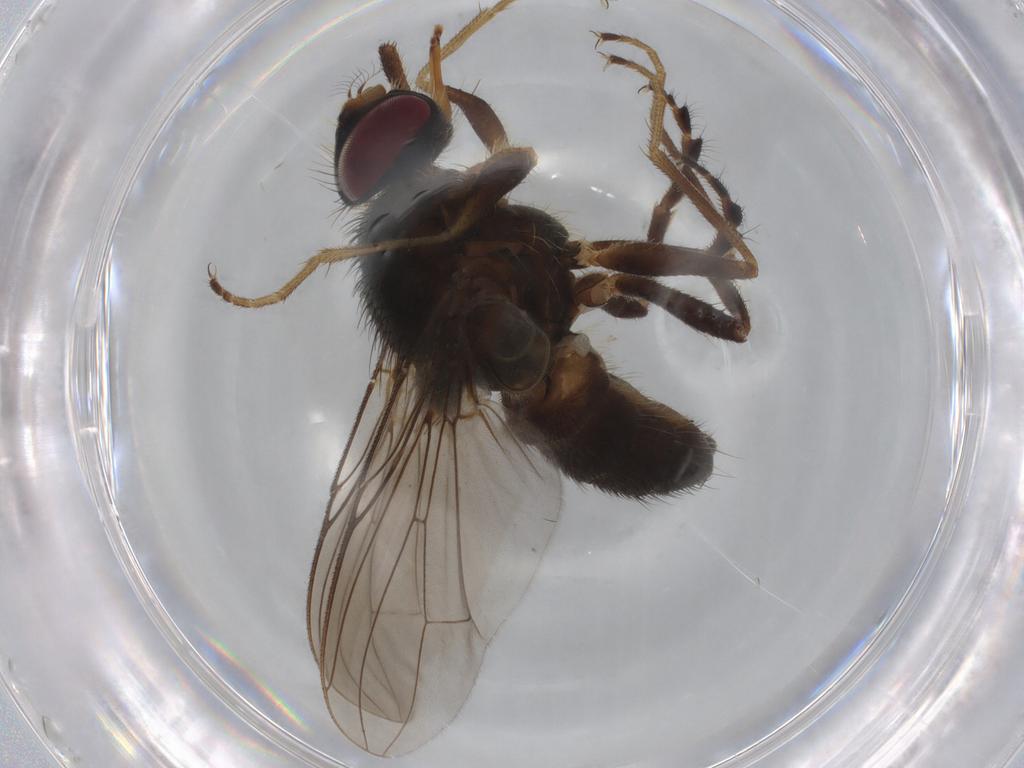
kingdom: Animalia
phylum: Arthropoda
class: Insecta
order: Diptera
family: Cecidomyiidae
